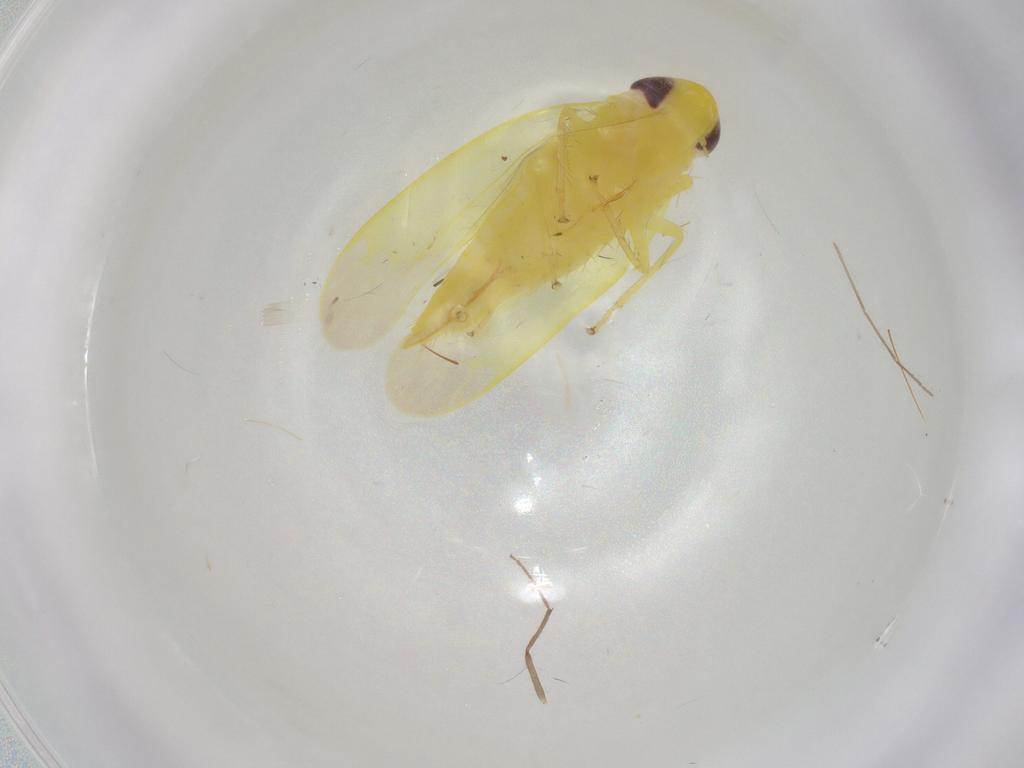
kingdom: Animalia
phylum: Arthropoda
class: Insecta
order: Hemiptera
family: Cicadellidae
